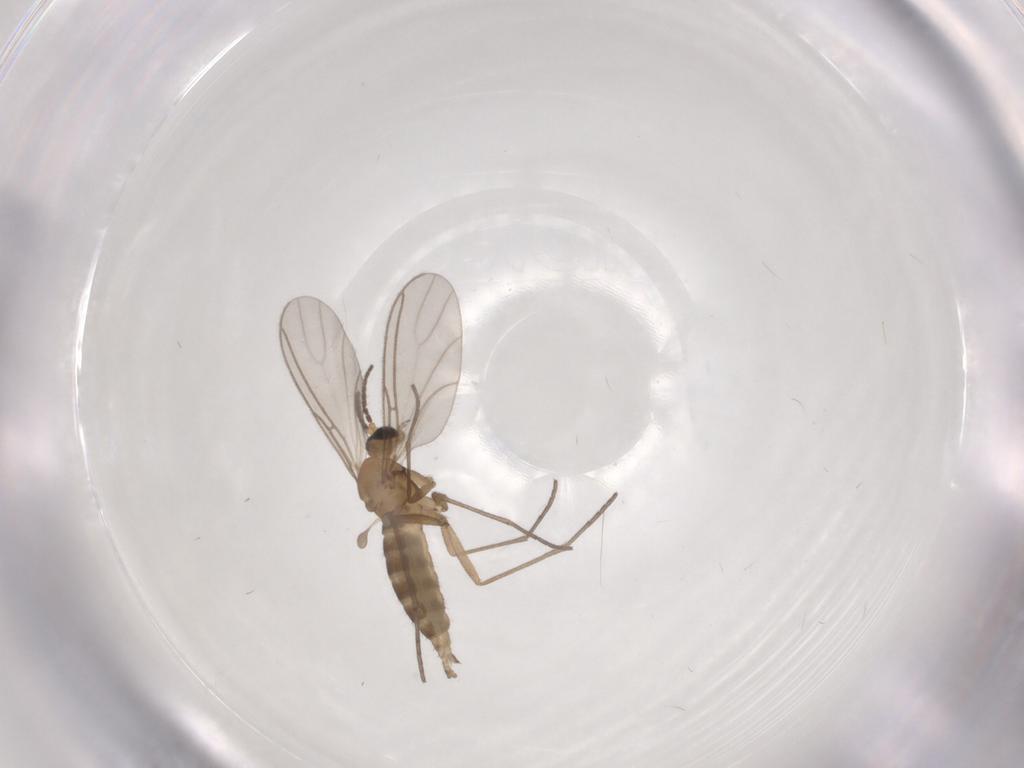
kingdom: Animalia
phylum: Arthropoda
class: Insecta
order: Diptera
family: Sciaridae
